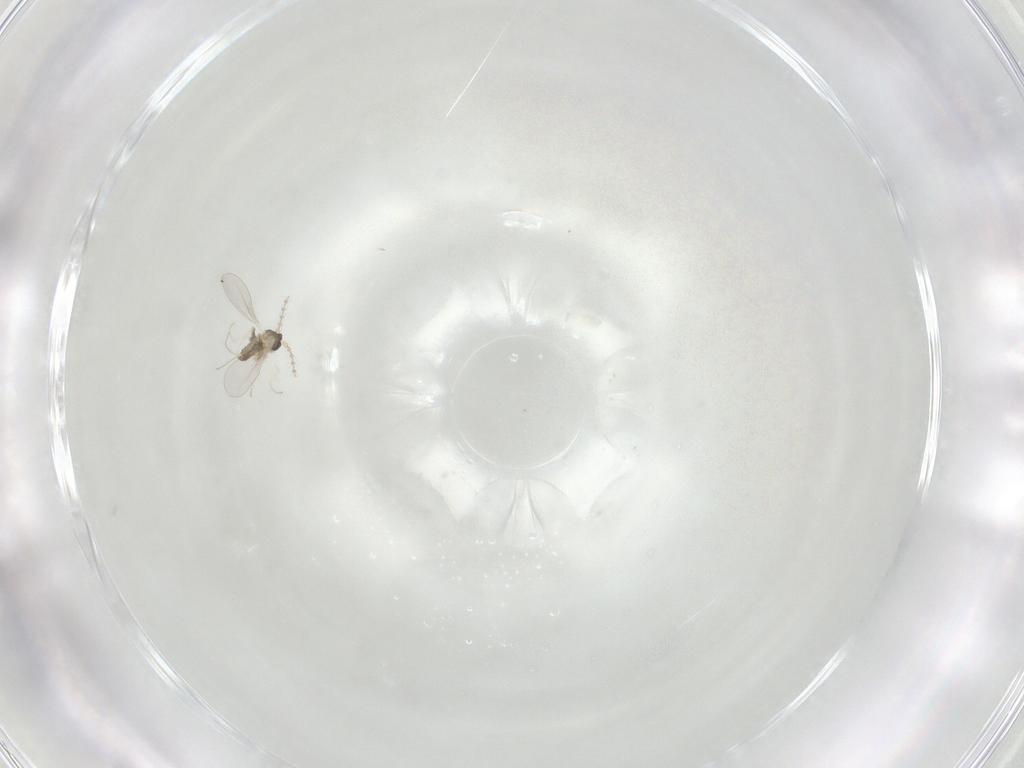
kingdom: Animalia
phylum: Arthropoda
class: Insecta
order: Diptera
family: Cecidomyiidae
